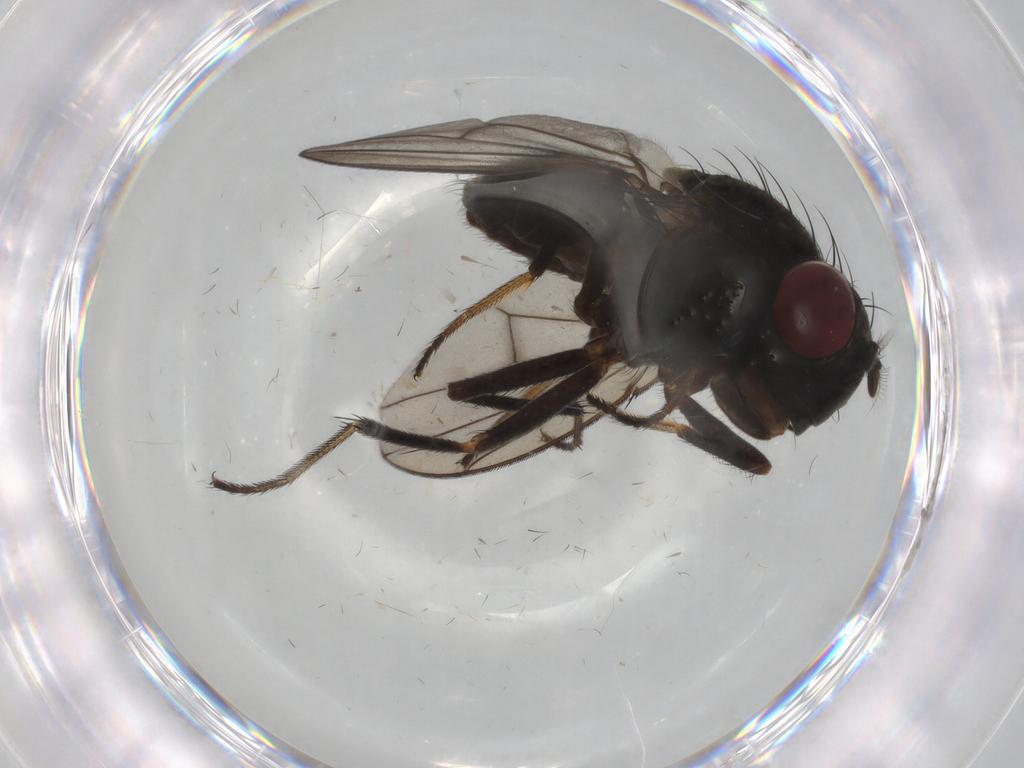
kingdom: Animalia
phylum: Arthropoda
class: Insecta
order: Diptera
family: Ephydridae
